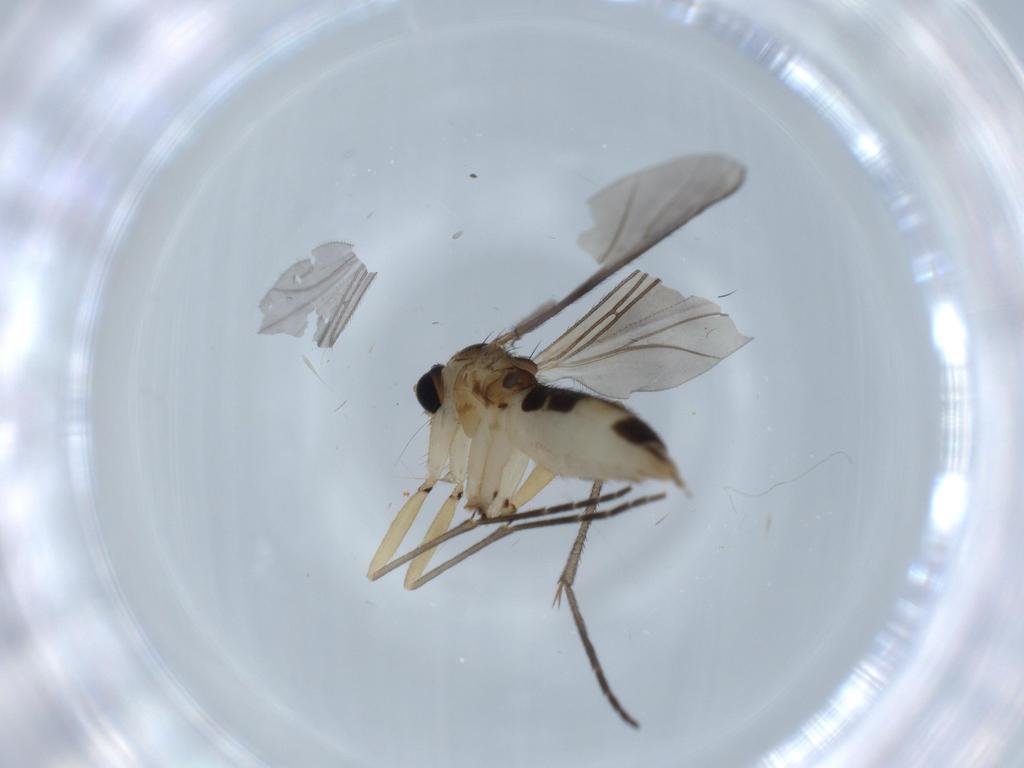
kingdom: Animalia
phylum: Arthropoda
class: Insecta
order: Diptera
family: Sciaridae
